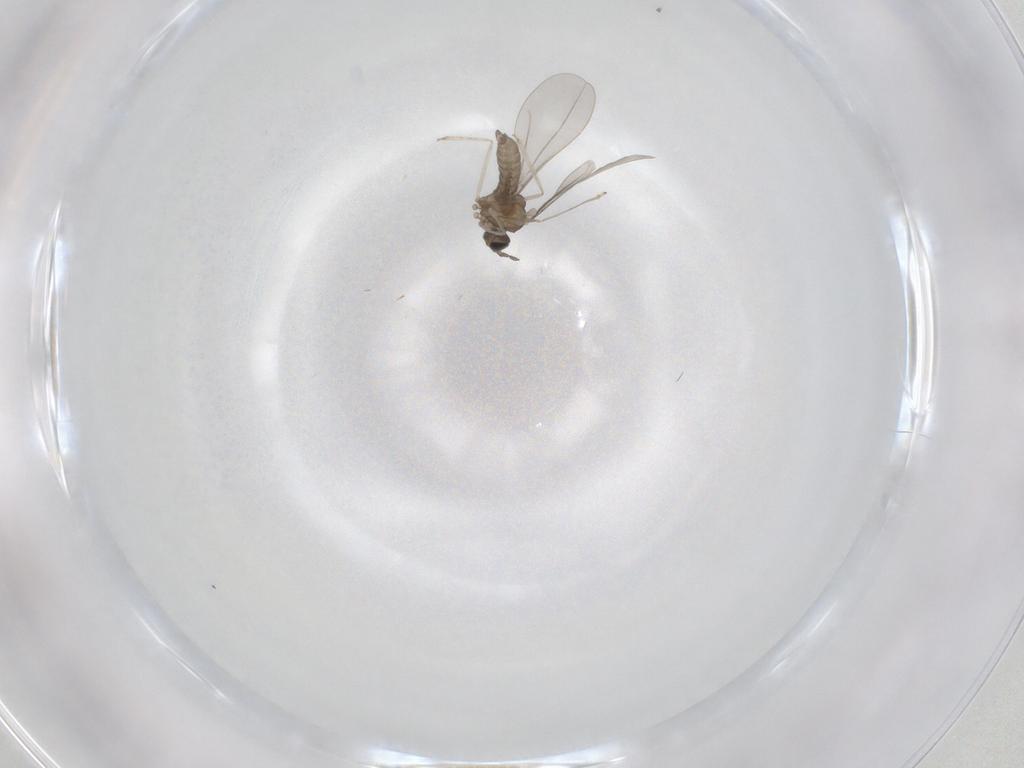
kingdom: Animalia
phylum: Arthropoda
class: Insecta
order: Diptera
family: Cecidomyiidae
